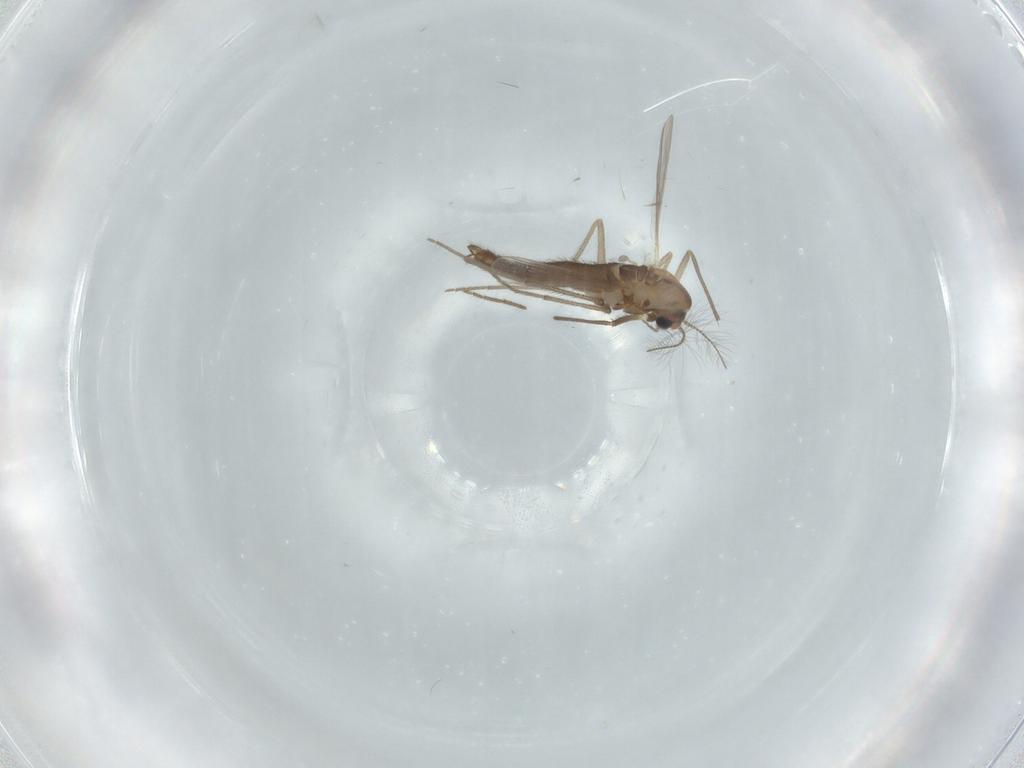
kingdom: Animalia
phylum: Arthropoda
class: Insecta
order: Diptera
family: Chironomidae
